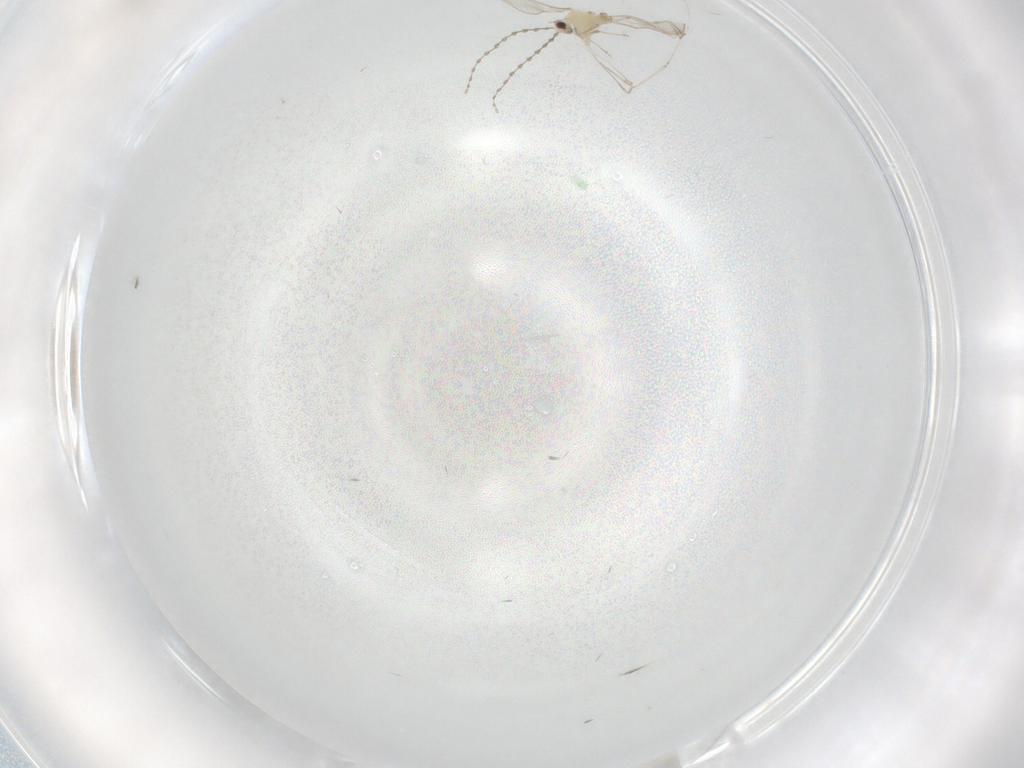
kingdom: Animalia
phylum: Arthropoda
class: Insecta
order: Diptera
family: Cecidomyiidae
